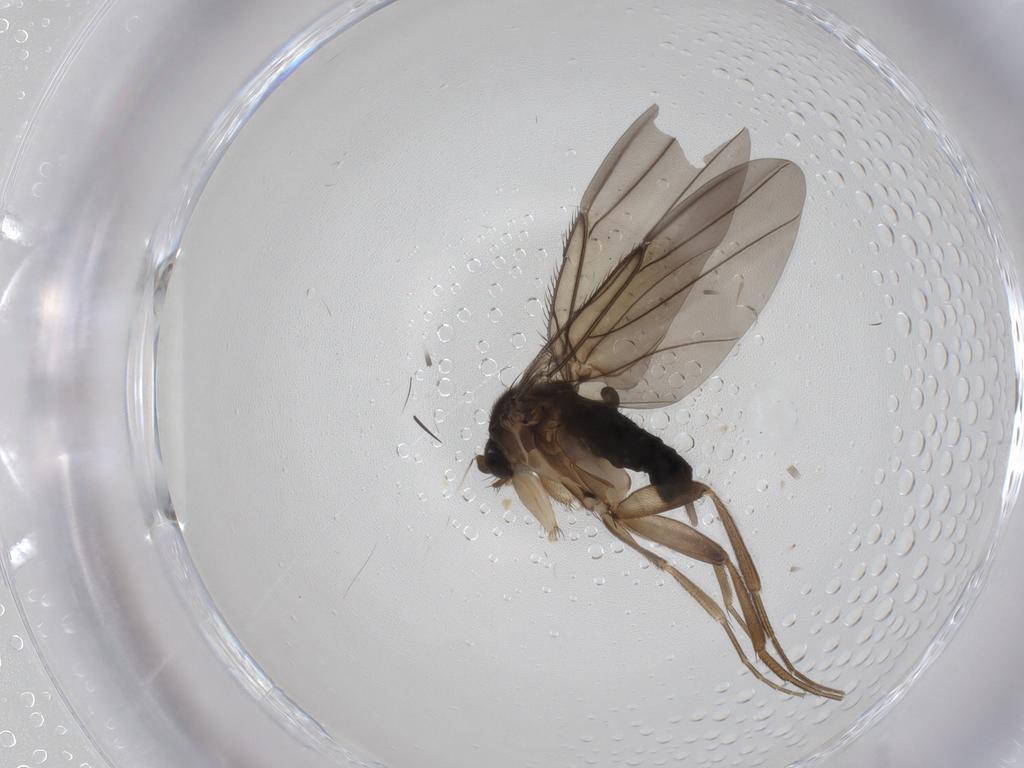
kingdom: Animalia
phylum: Arthropoda
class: Insecta
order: Diptera
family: Phoridae
